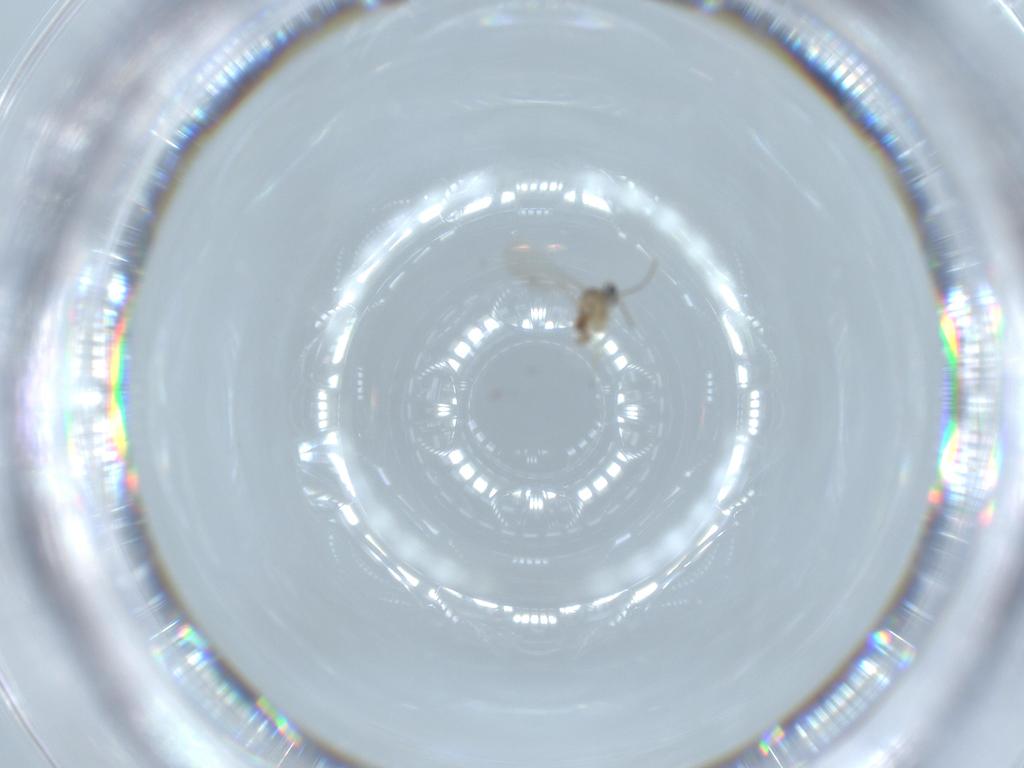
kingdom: Animalia
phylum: Arthropoda
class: Insecta
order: Diptera
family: Cecidomyiidae
